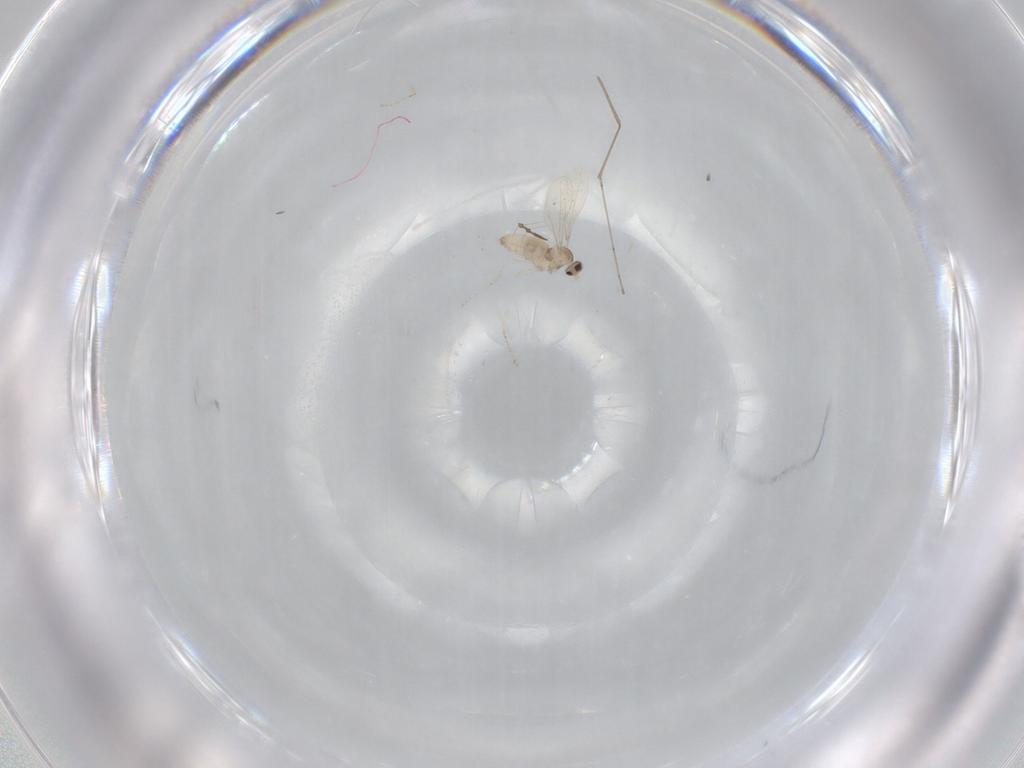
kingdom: Animalia
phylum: Arthropoda
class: Insecta
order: Diptera
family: Cecidomyiidae
